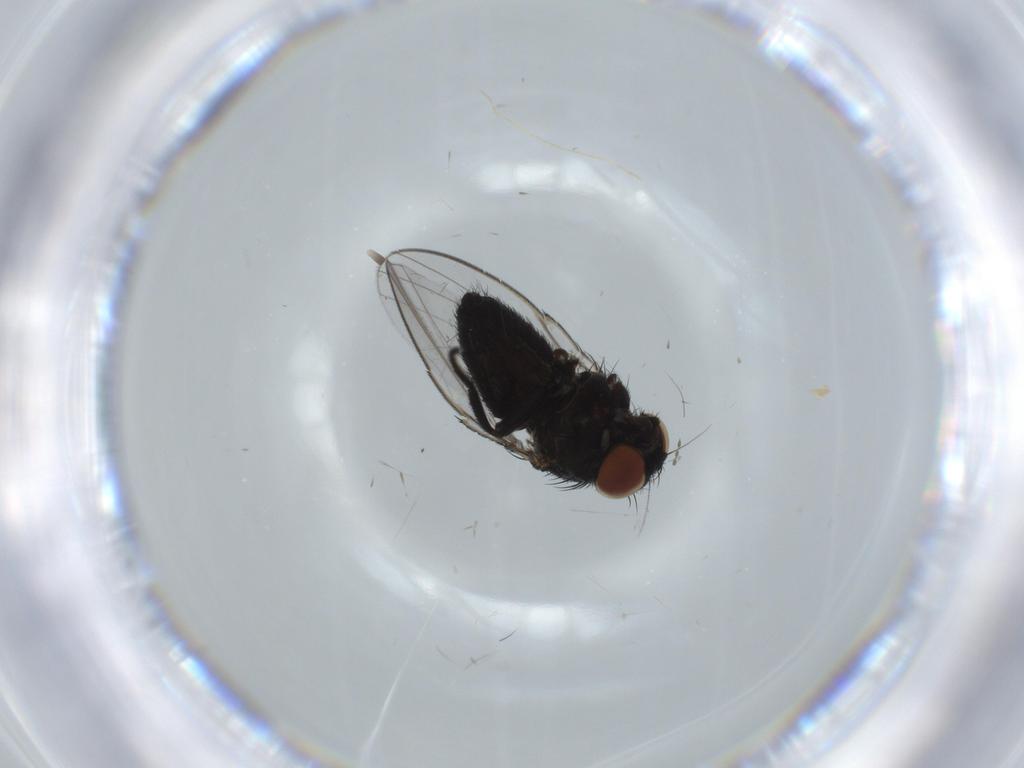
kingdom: Animalia
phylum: Arthropoda
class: Insecta
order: Diptera
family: Milichiidae
